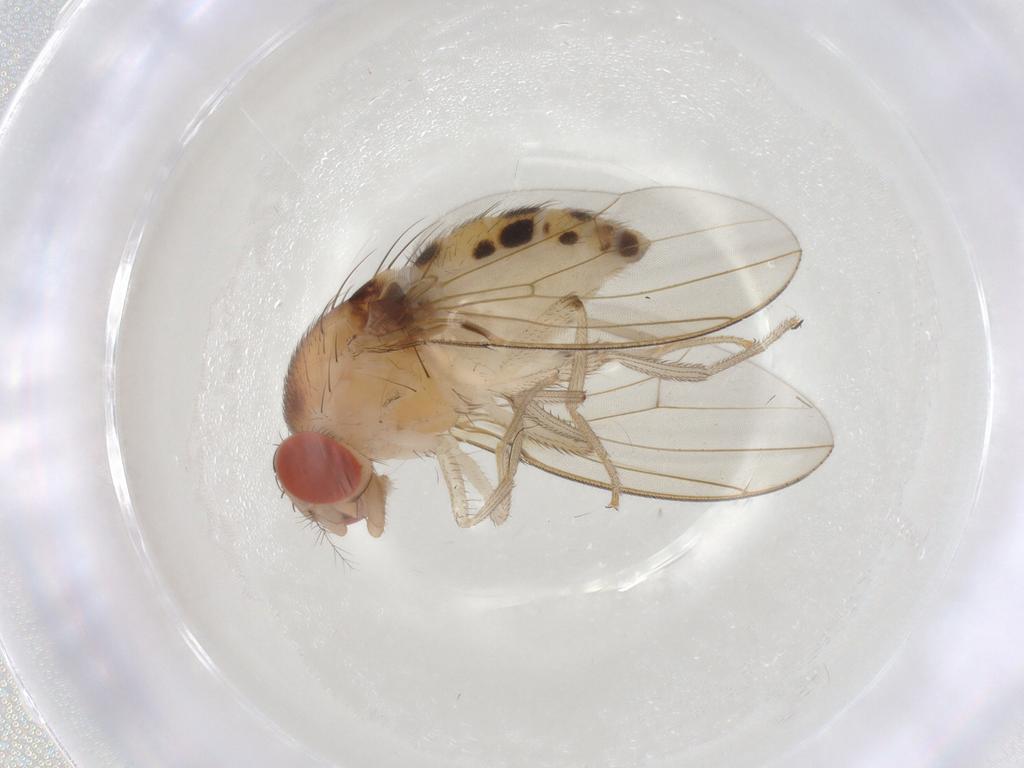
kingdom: Animalia
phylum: Arthropoda
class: Insecta
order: Diptera
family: Drosophilidae
